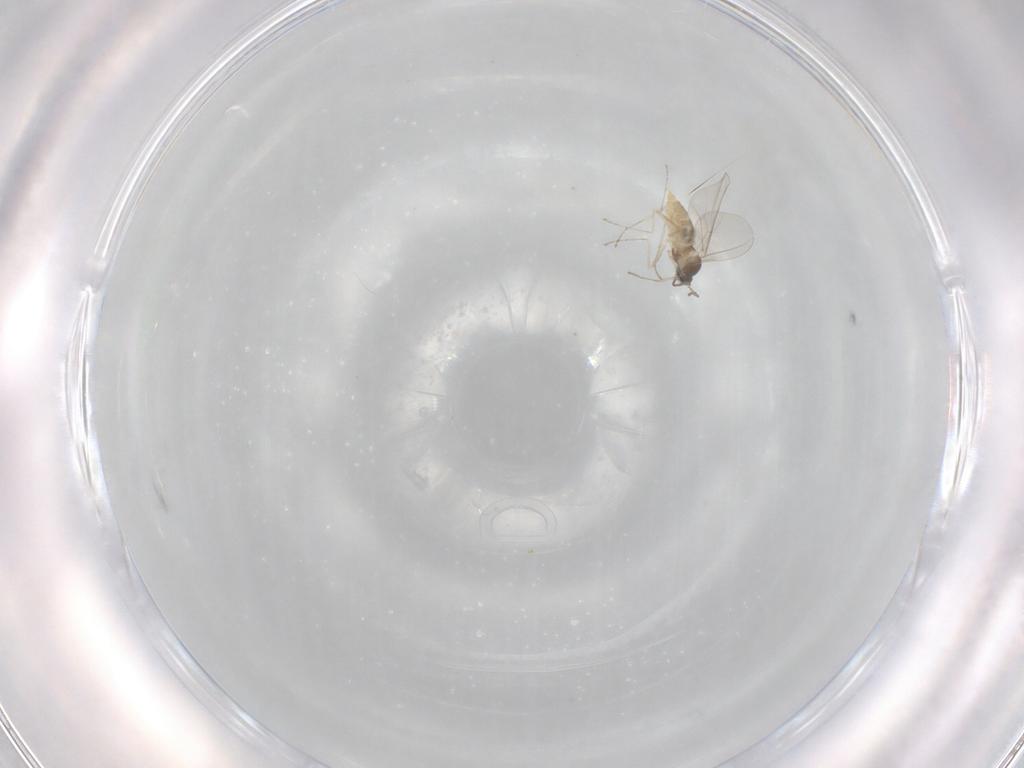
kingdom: Animalia
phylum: Arthropoda
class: Insecta
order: Diptera
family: Cecidomyiidae
